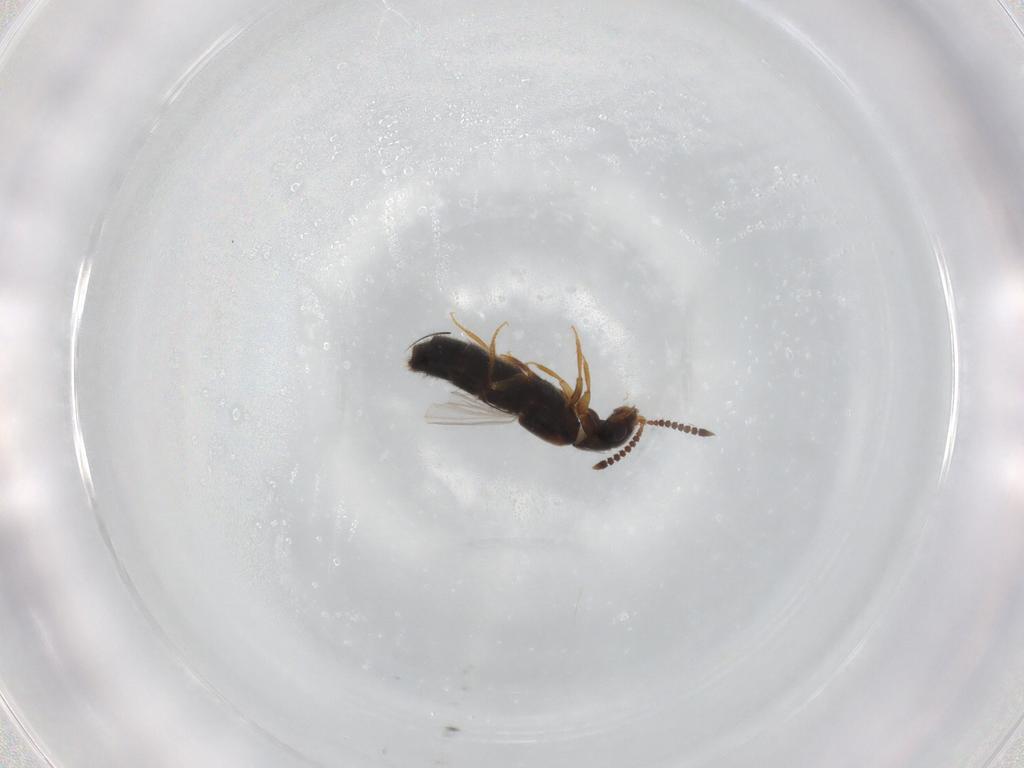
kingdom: Animalia
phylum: Arthropoda
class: Insecta
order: Coleoptera
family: Staphylinidae
